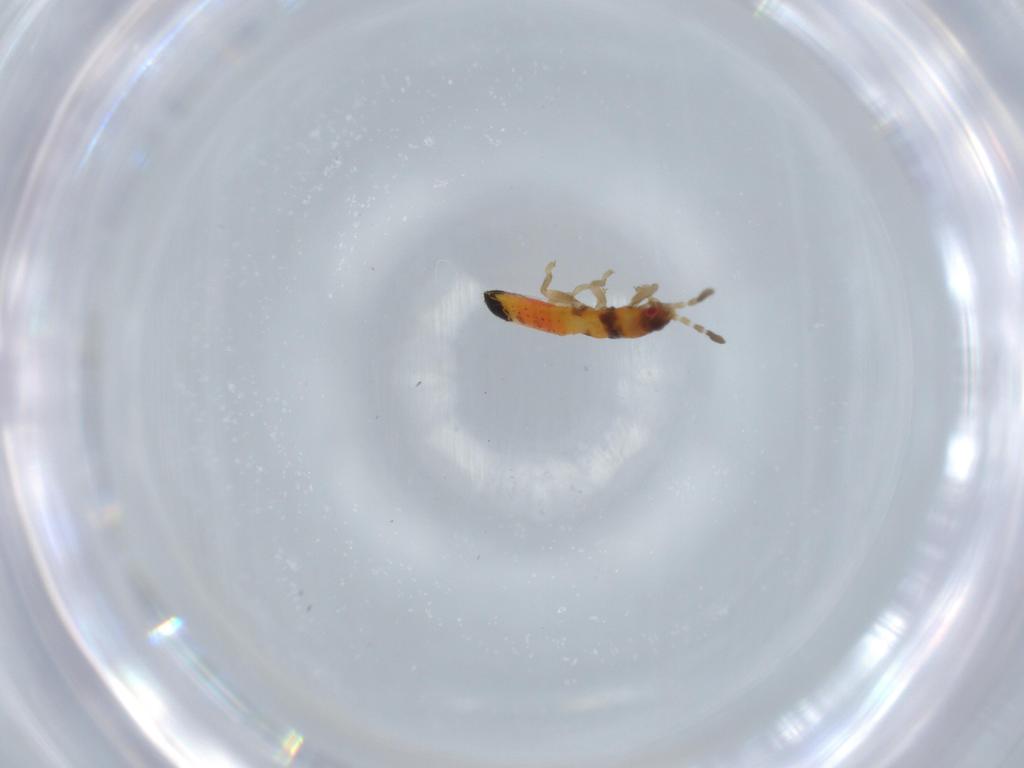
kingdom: Animalia
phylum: Arthropoda
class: Insecta
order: Hemiptera
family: Blissidae
